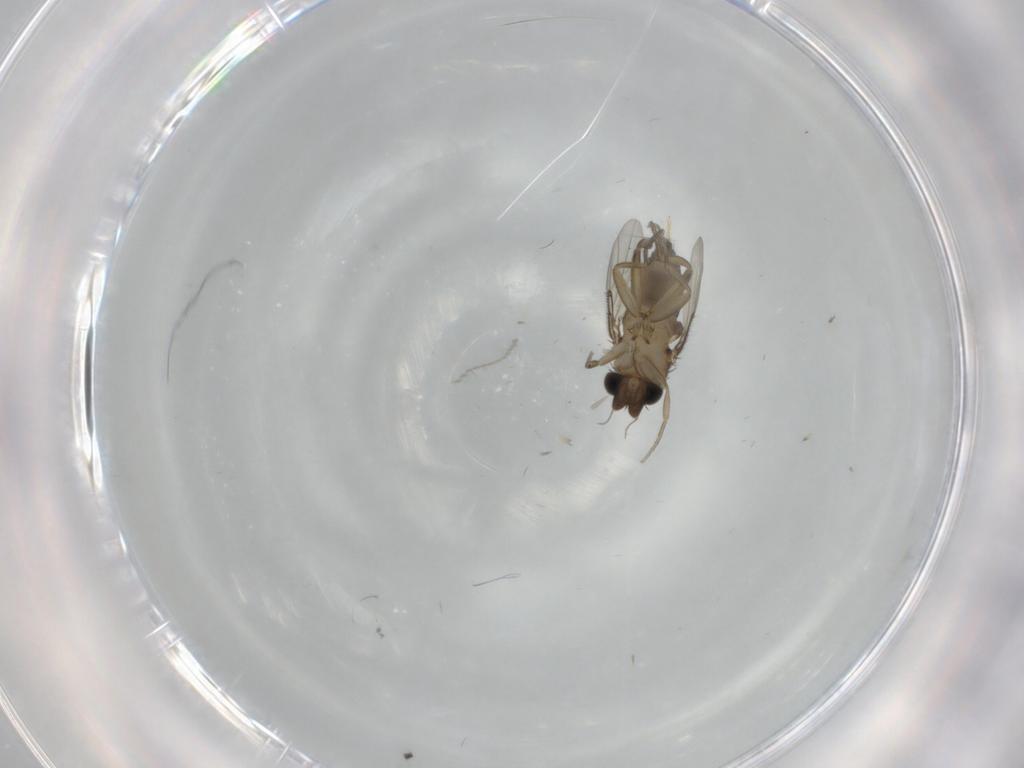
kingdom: Animalia
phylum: Arthropoda
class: Insecta
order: Diptera
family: Phoridae
